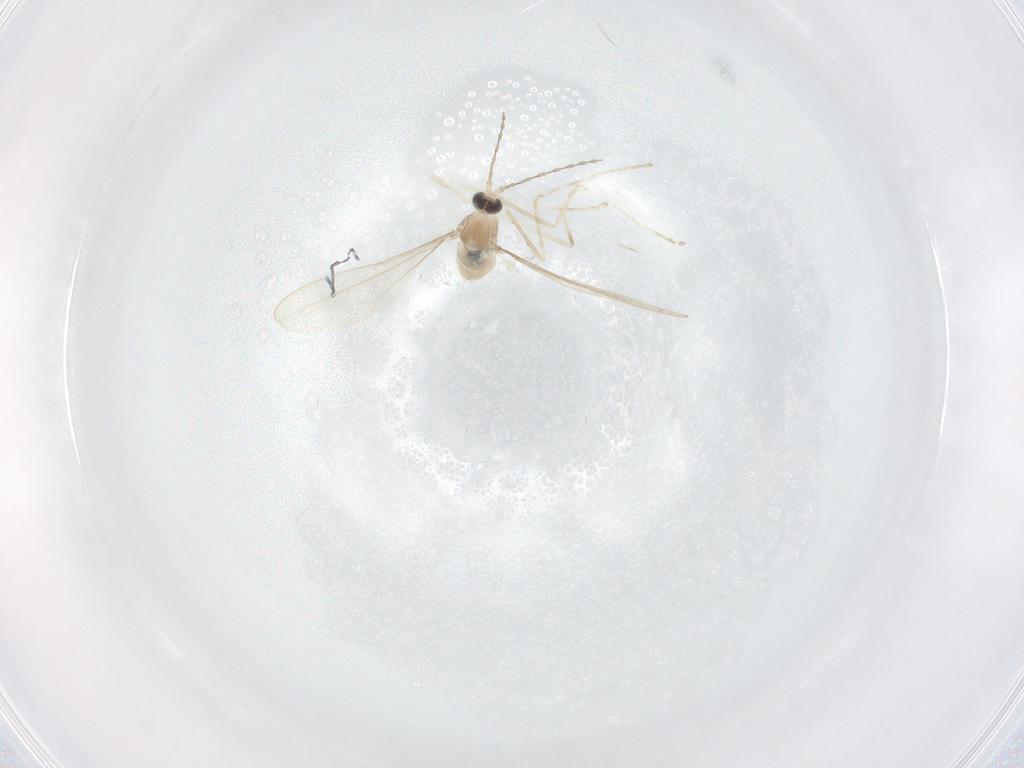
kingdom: Animalia
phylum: Arthropoda
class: Insecta
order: Diptera
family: Cecidomyiidae
